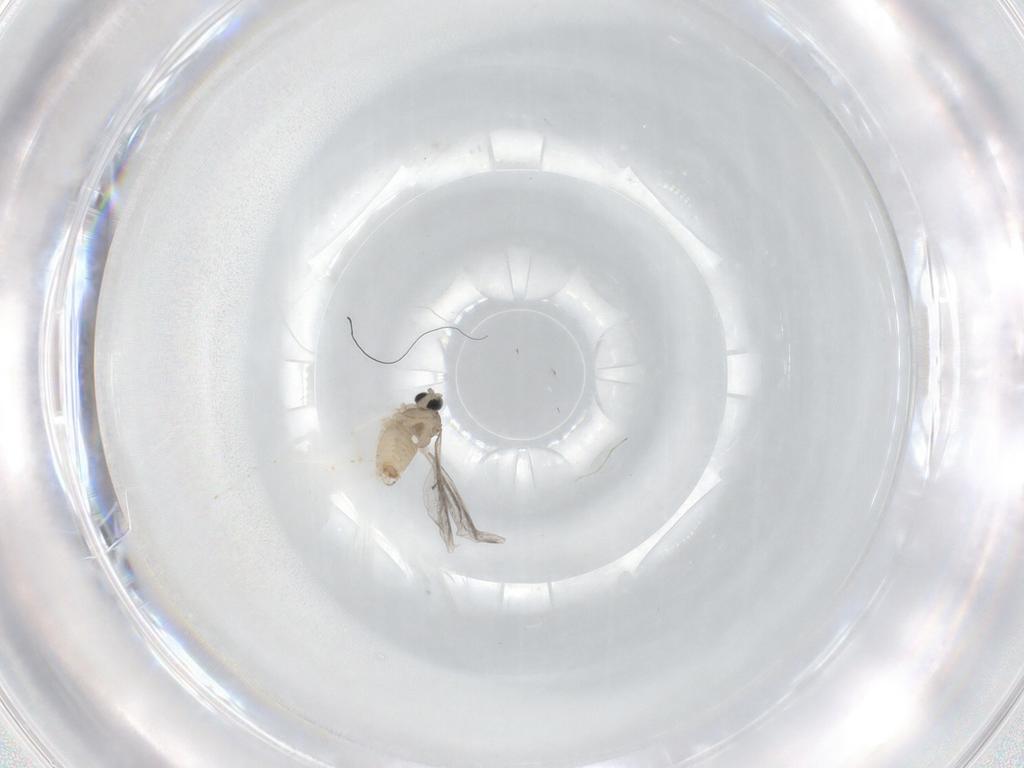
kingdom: Animalia
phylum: Arthropoda
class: Insecta
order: Diptera
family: Cecidomyiidae
